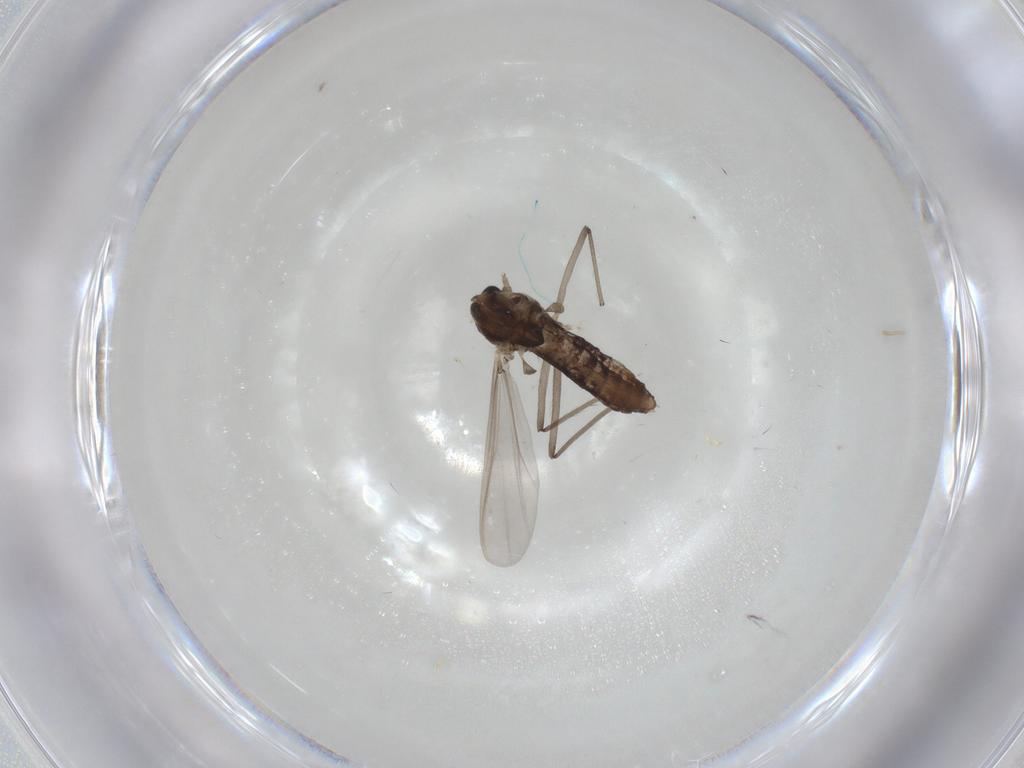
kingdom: Animalia
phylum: Arthropoda
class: Insecta
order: Diptera
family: Chironomidae
